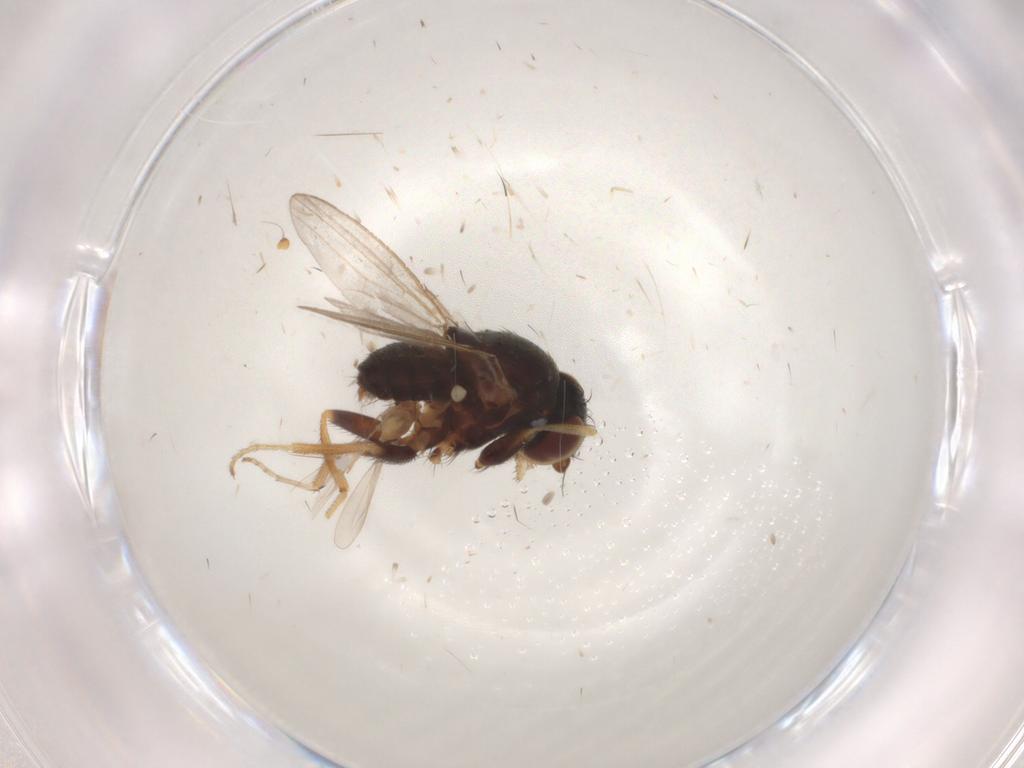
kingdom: Animalia
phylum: Arthropoda
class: Insecta
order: Diptera
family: Milichiidae
